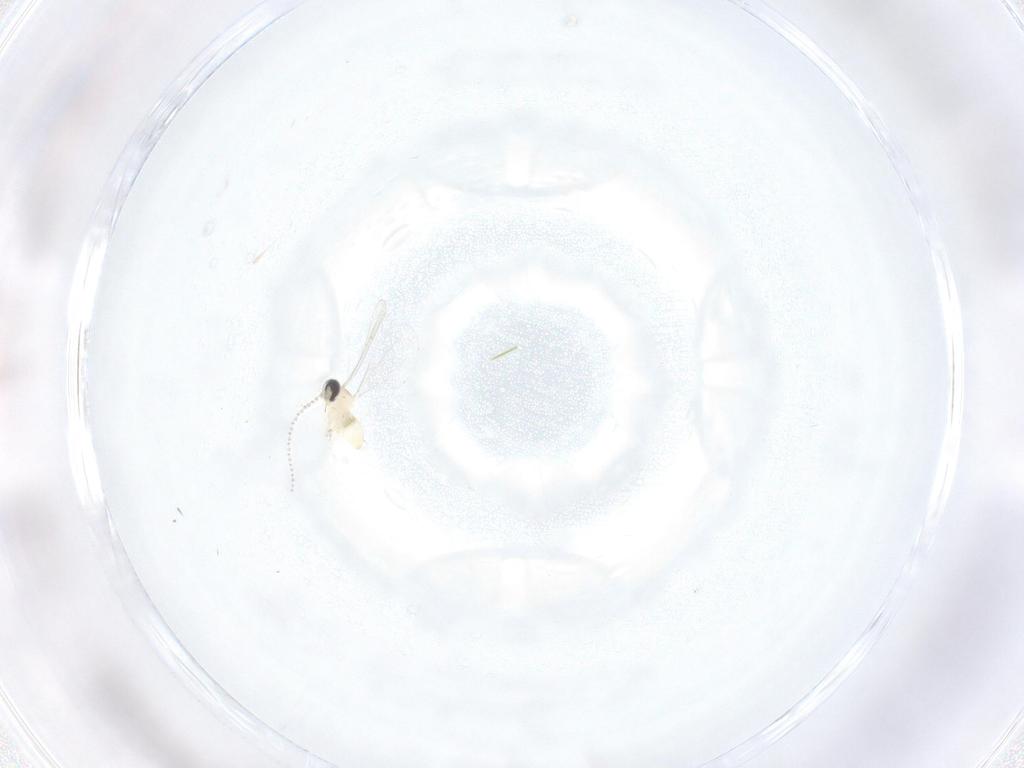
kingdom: Animalia
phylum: Arthropoda
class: Insecta
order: Diptera
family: Cecidomyiidae
